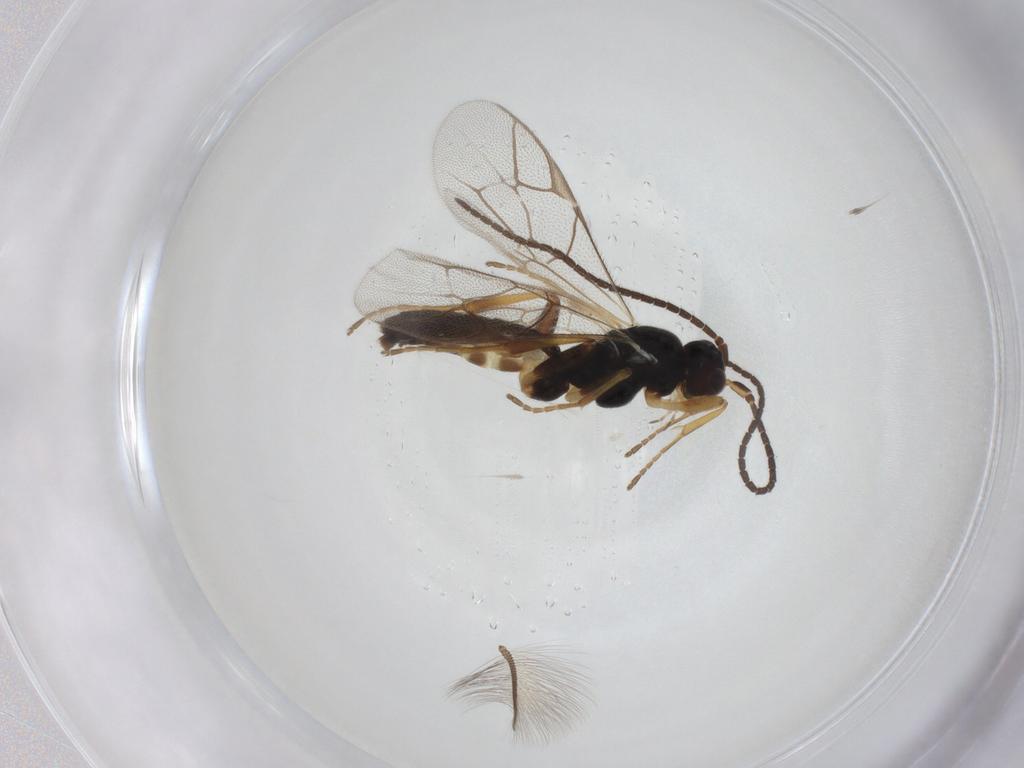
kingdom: Animalia
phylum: Arthropoda
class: Insecta
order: Hymenoptera
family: Ichneumonidae
